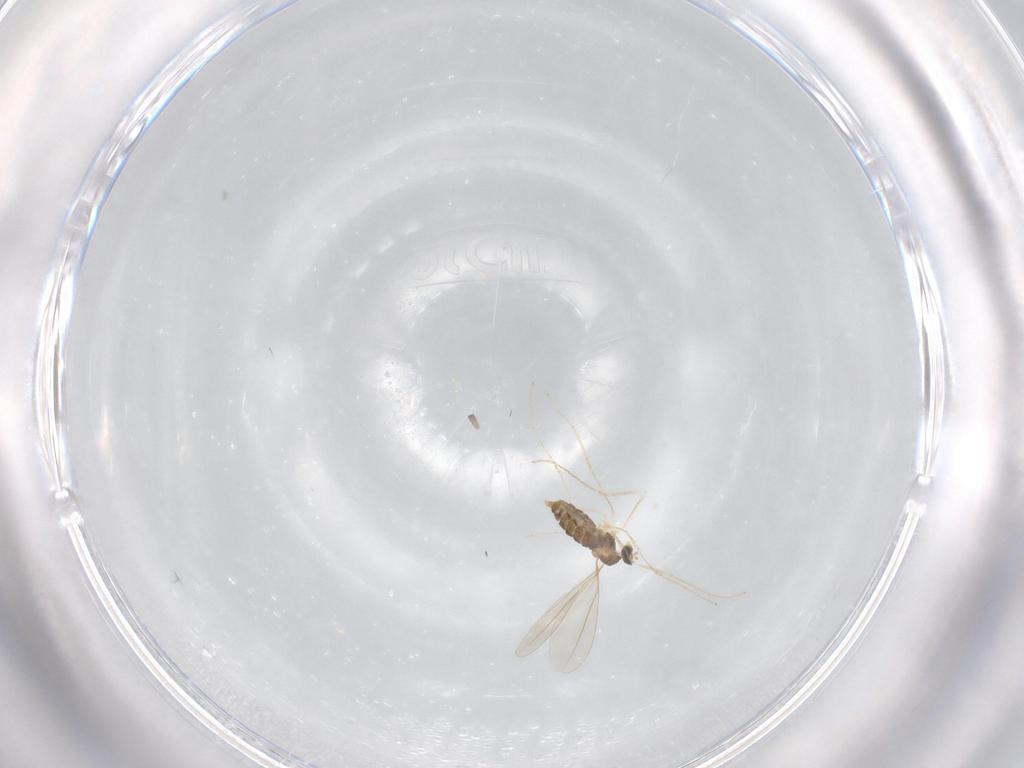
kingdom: Animalia
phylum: Arthropoda
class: Insecta
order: Diptera
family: Cecidomyiidae
